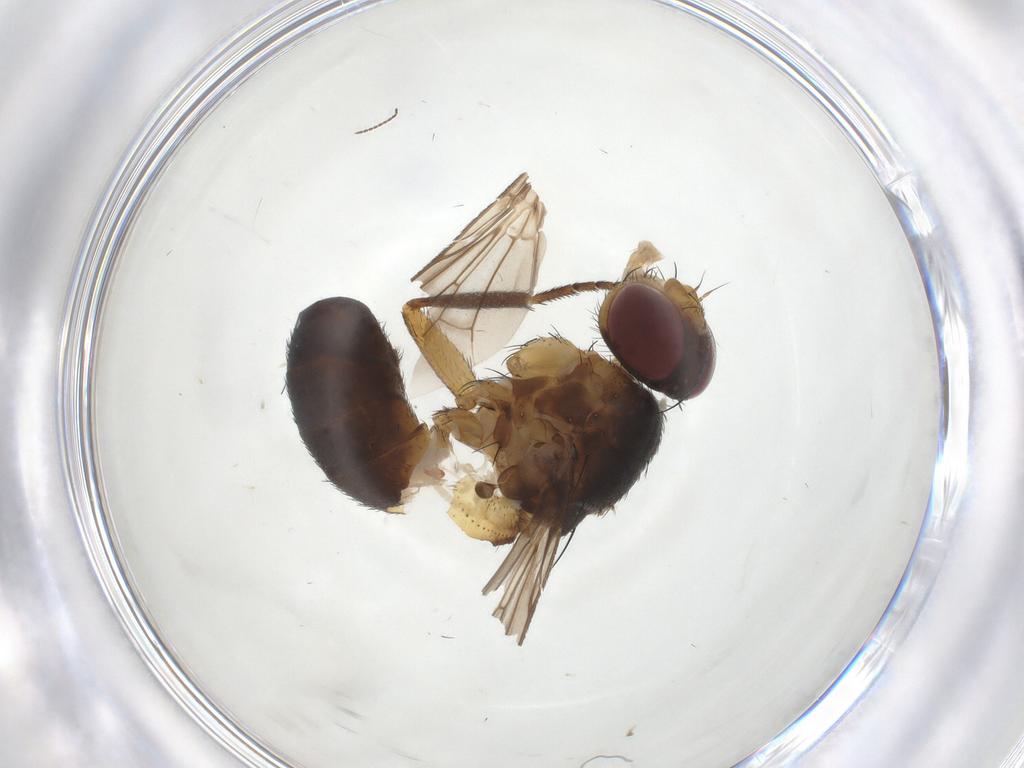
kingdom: Animalia
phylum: Arthropoda
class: Insecta
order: Diptera
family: Tachinidae
